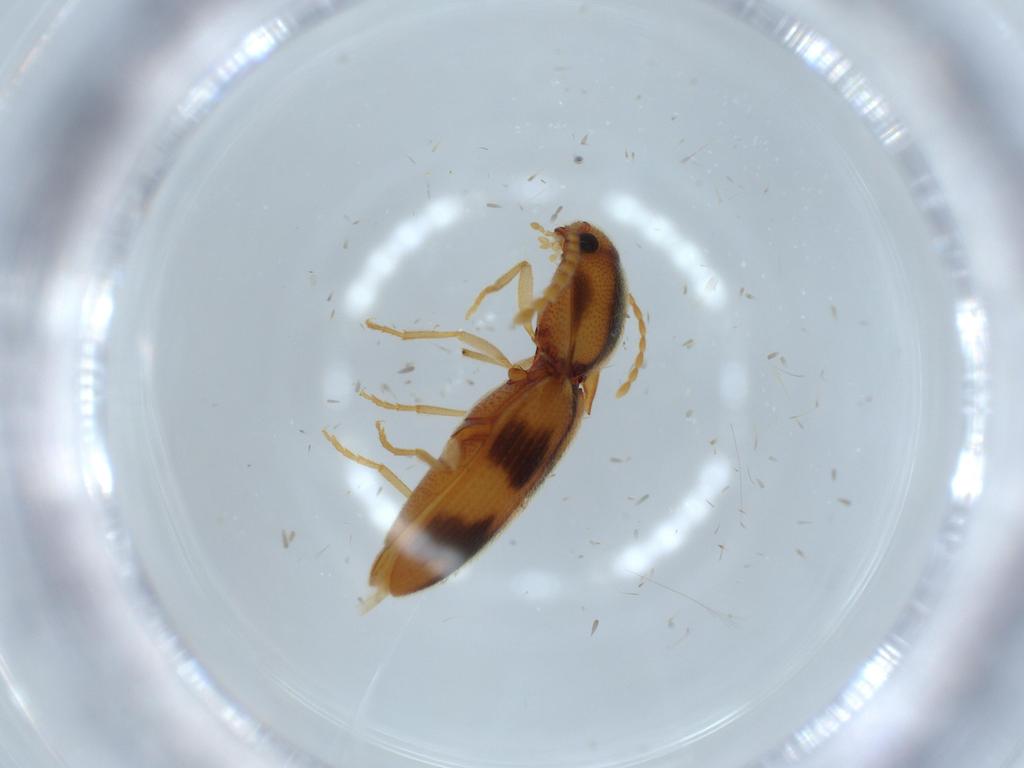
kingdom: Animalia
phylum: Arthropoda
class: Insecta
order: Coleoptera
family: Elateridae
